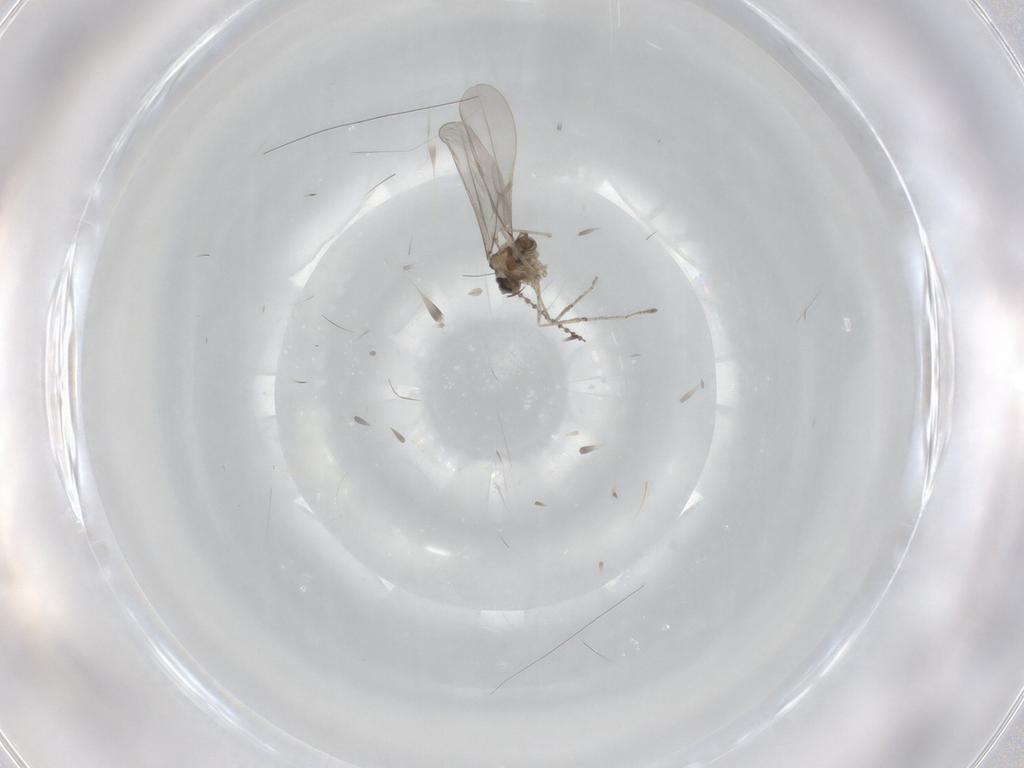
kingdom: Animalia
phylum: Arthropoda
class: Insecta
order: Diptera
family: Cecidomyiidae
